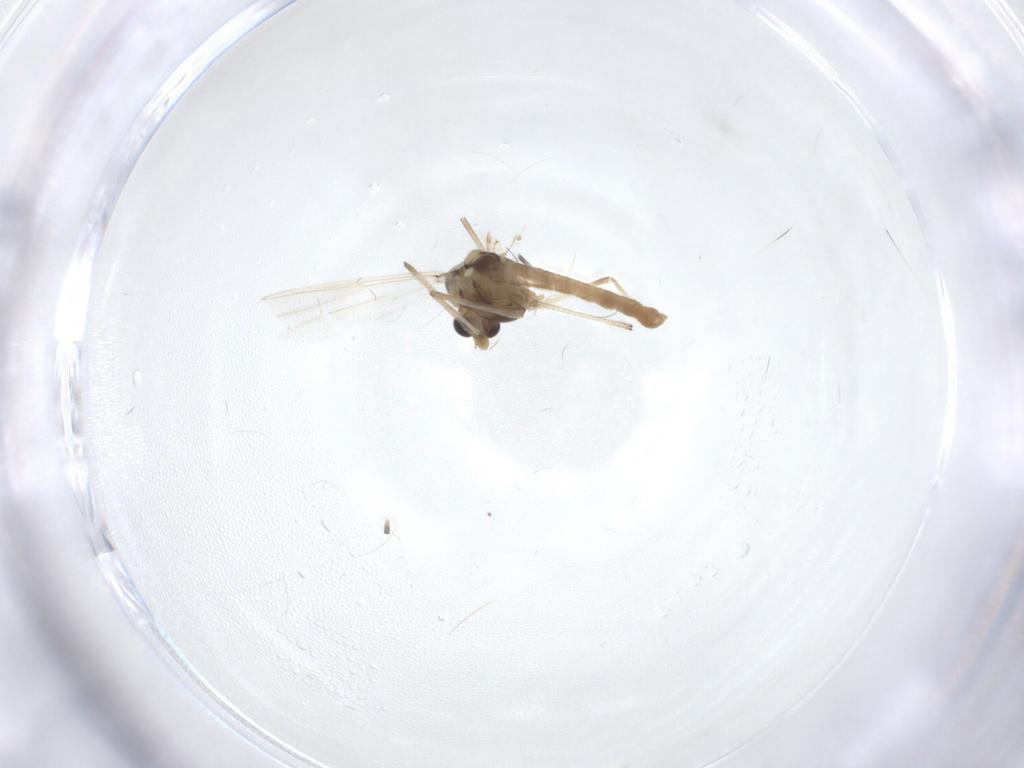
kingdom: Animalia
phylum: Arthropoda
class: Insecta
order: Diptera
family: Chironomidae
